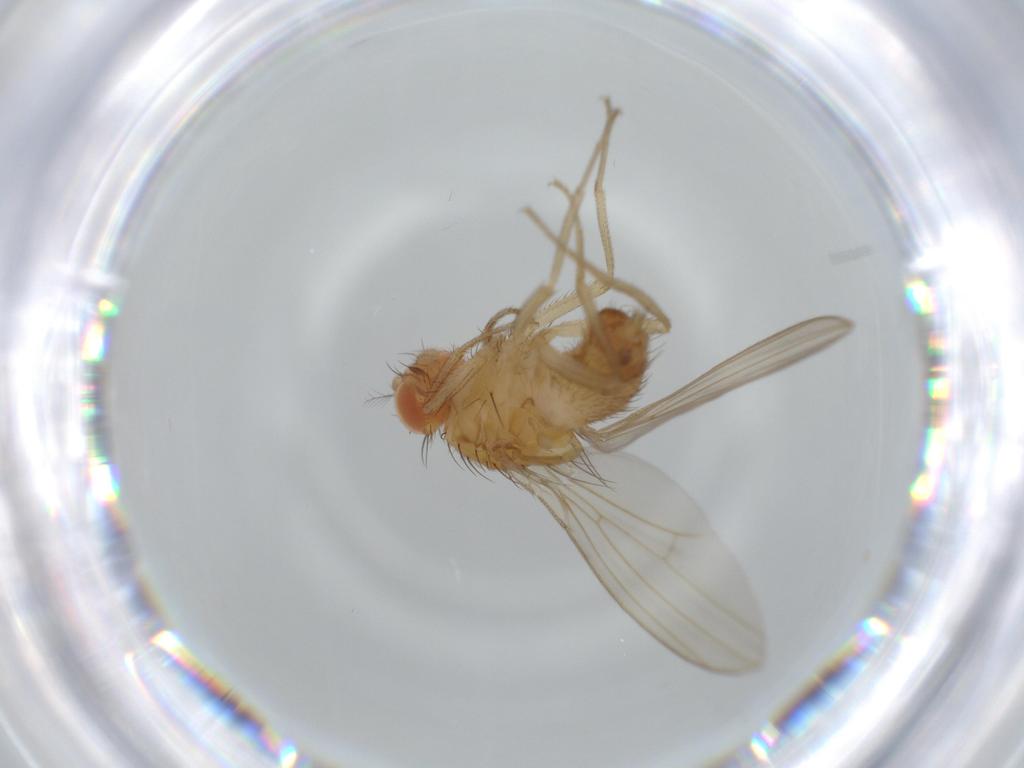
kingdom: Animalia
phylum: Arthropoda
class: Insecta
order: Diptera
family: Drosophilidae
